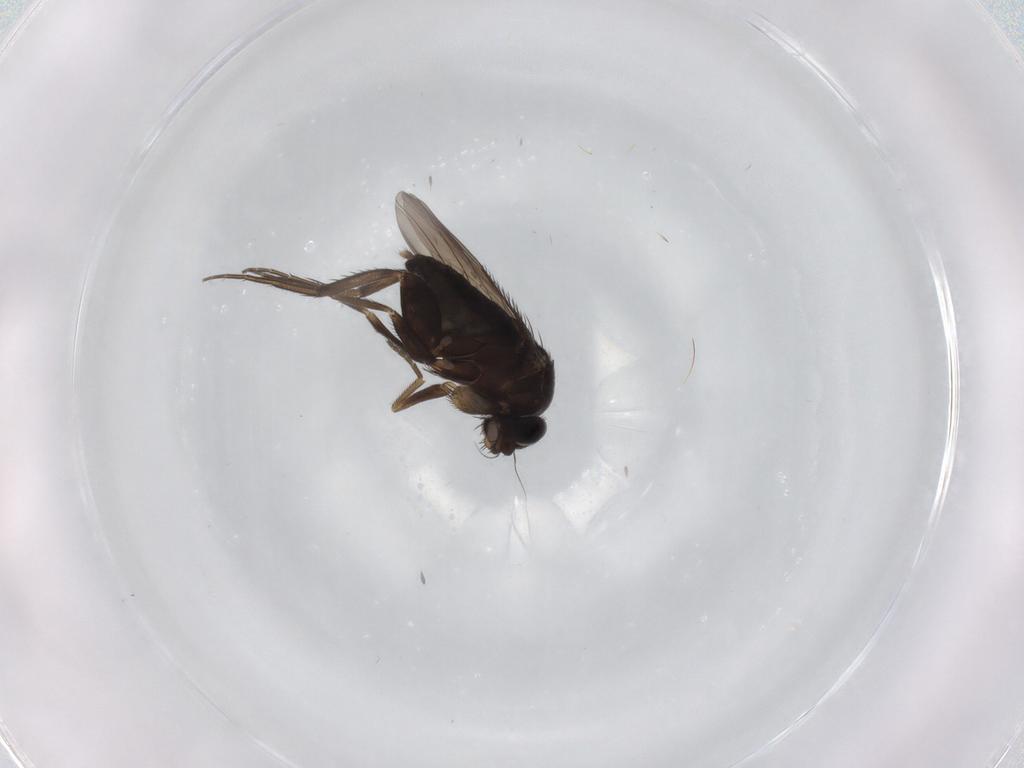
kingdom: Animalia
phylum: Arthropoda
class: Insecta
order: Diptera
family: Phoridae
